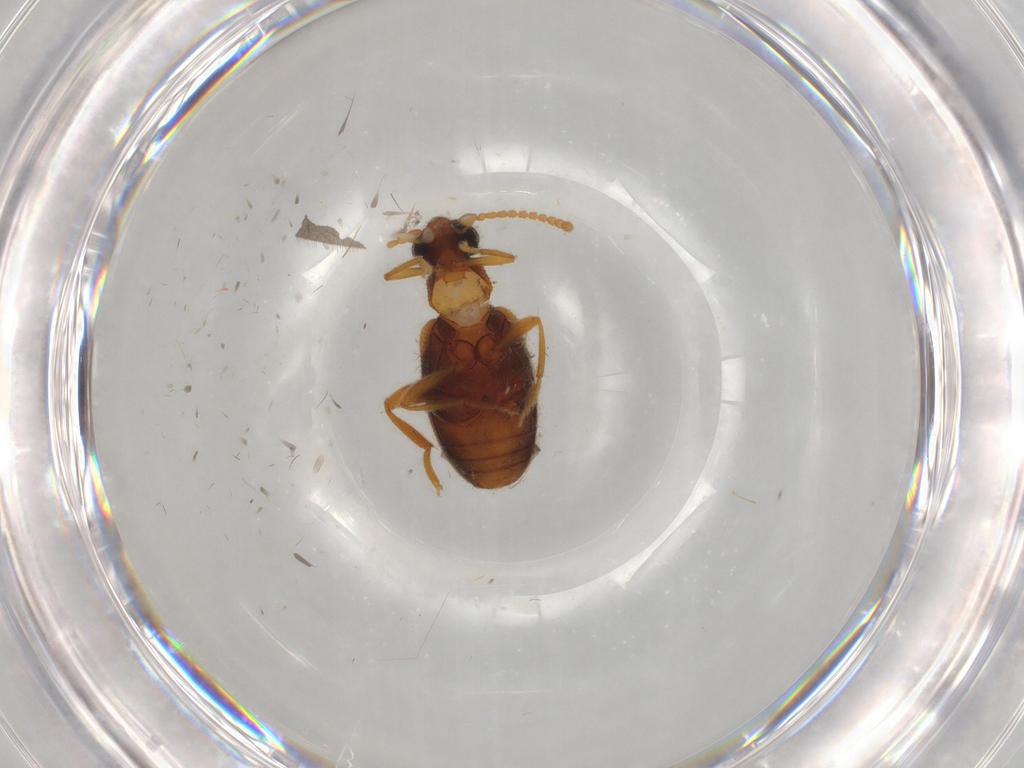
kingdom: Animalia
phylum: Arthropoda
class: Insecta
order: Coleoptera
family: Aderidae
